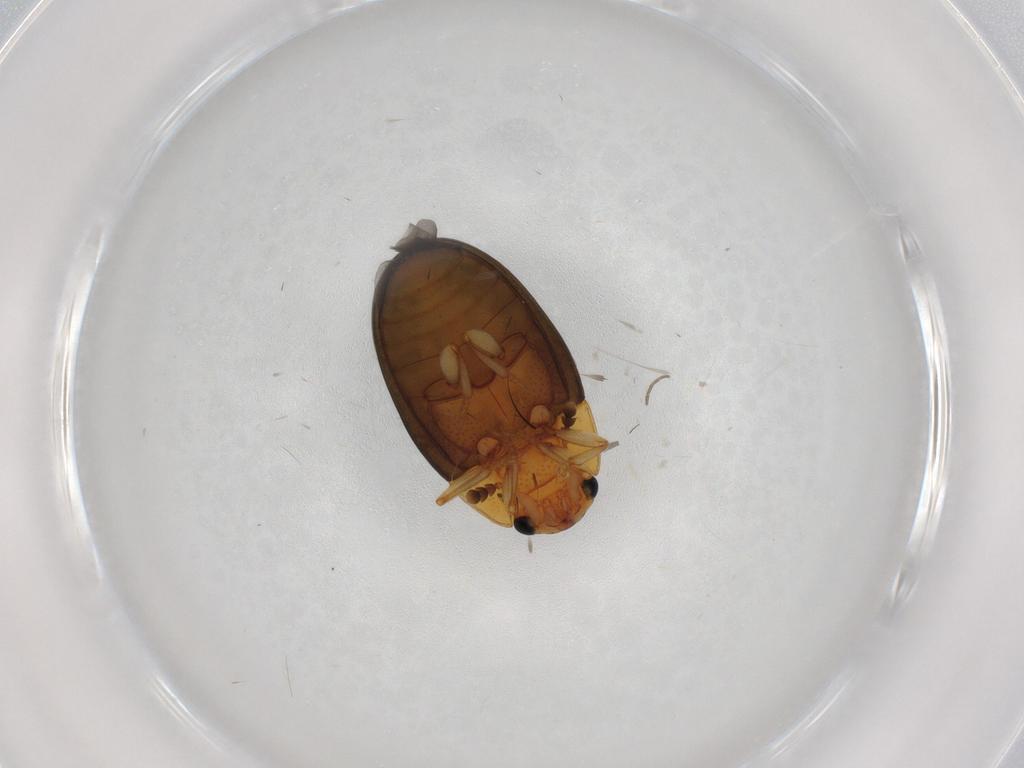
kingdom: Animalia
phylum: Arthropoda
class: Insecta
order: Coleoptera
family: Erotylidae
